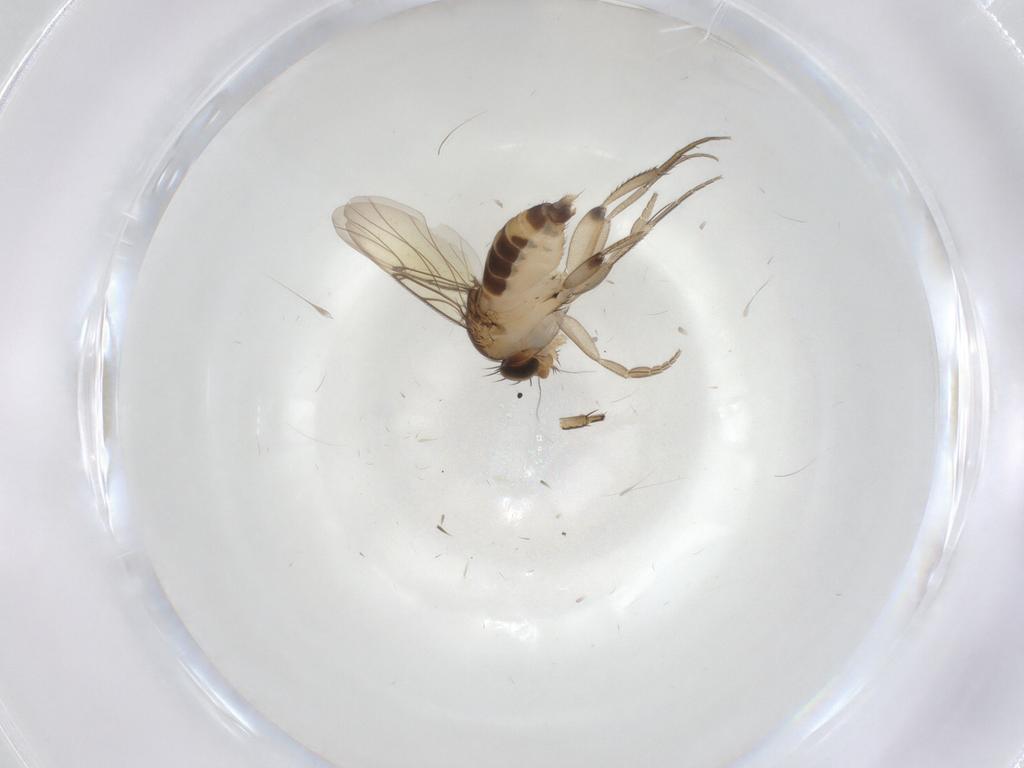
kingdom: Animalia
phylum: Arthropoda
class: Insecta
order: Diptera
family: Phoridae
